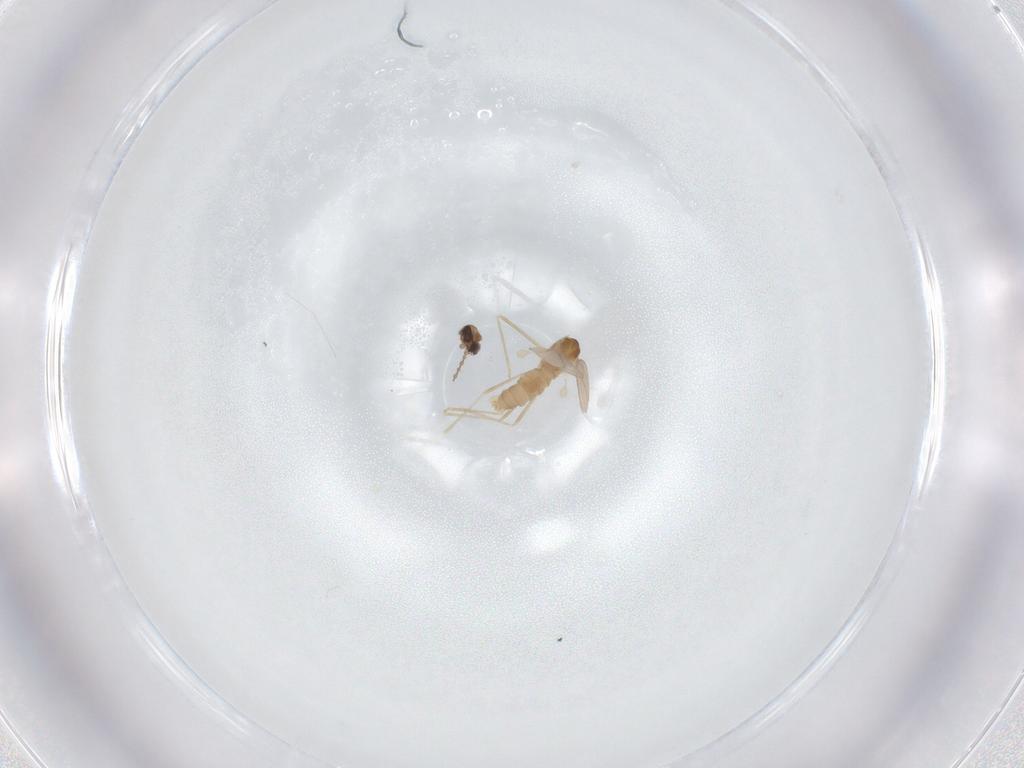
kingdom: Animalia
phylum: Arthropoda
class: Insecta
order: Diptera
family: Cecidomyiidae
